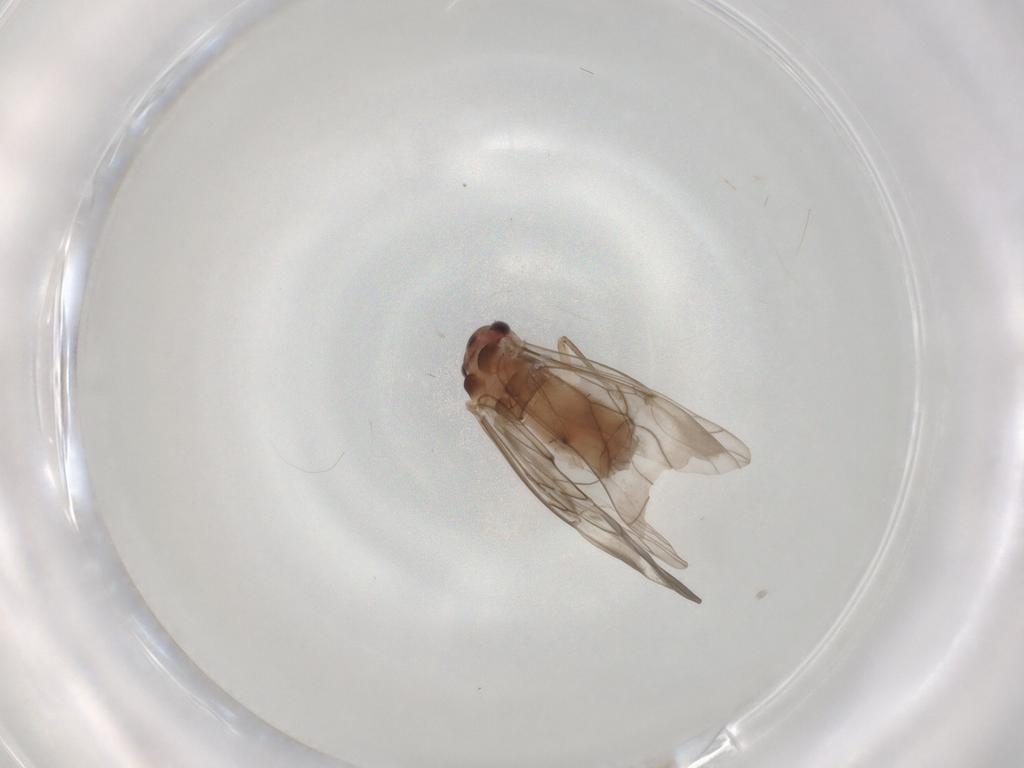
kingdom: Animalia
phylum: Arthropoda
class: Insecta
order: Psocodea
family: Peripsocidae
